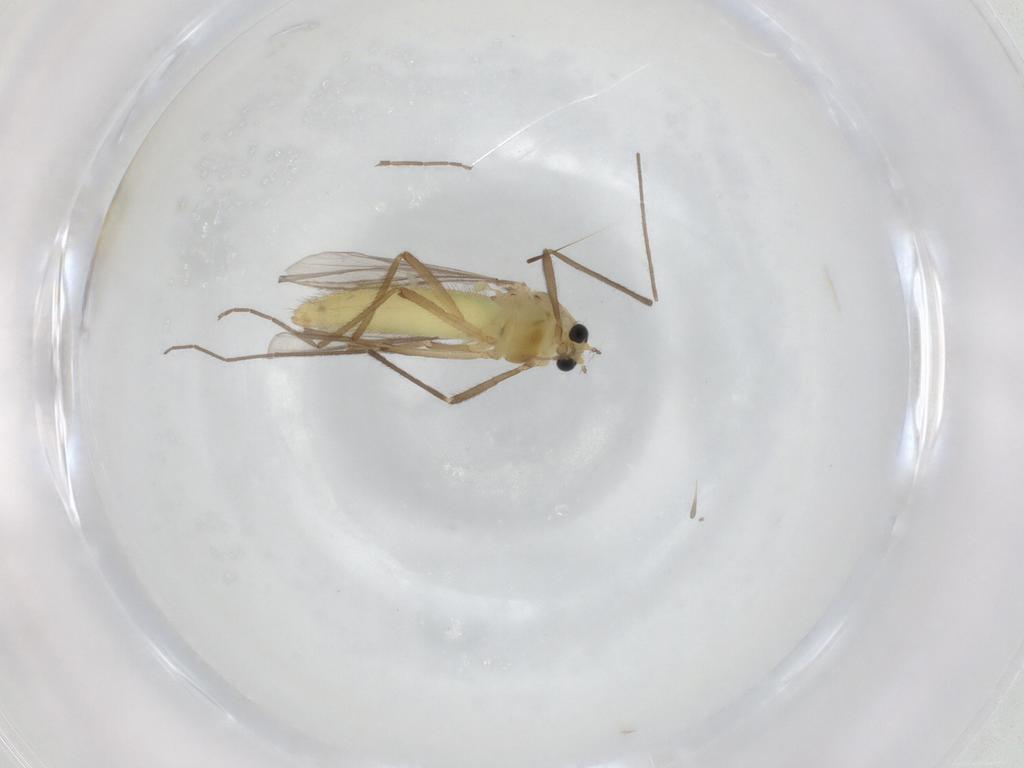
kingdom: Animalia
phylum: Arthropoda
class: Insecta
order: Diptera
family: Chironomidae
